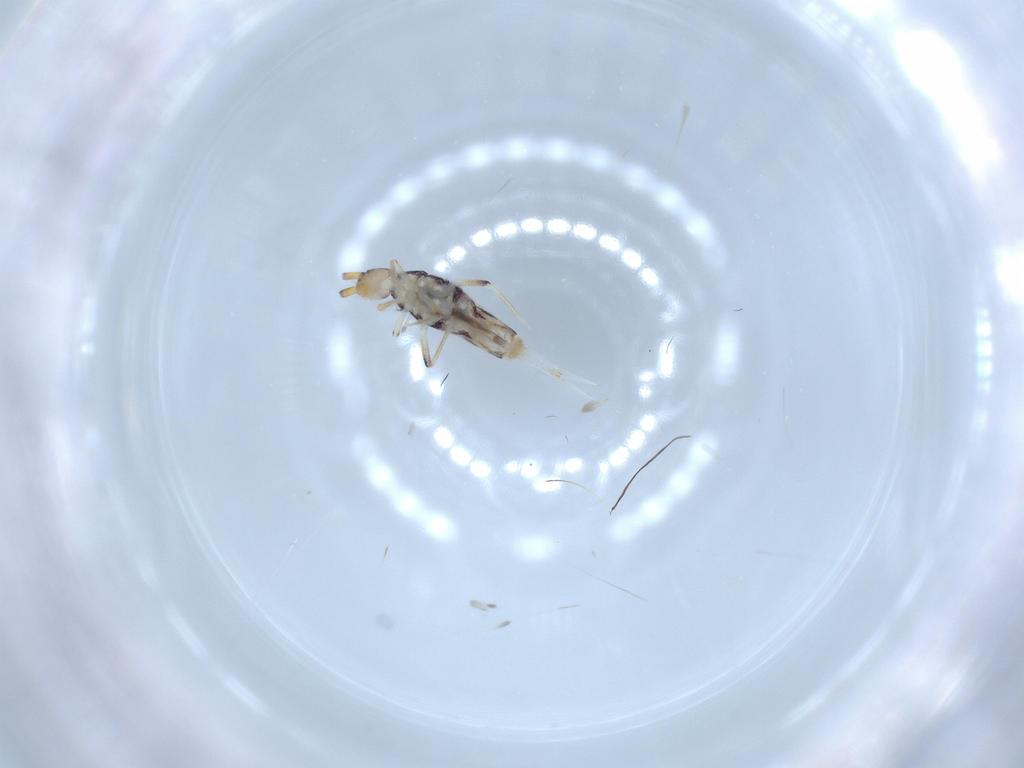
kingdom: Animalia
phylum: Arthropoda
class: Collembola
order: Entomobryomorpha
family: Entomobryidae
